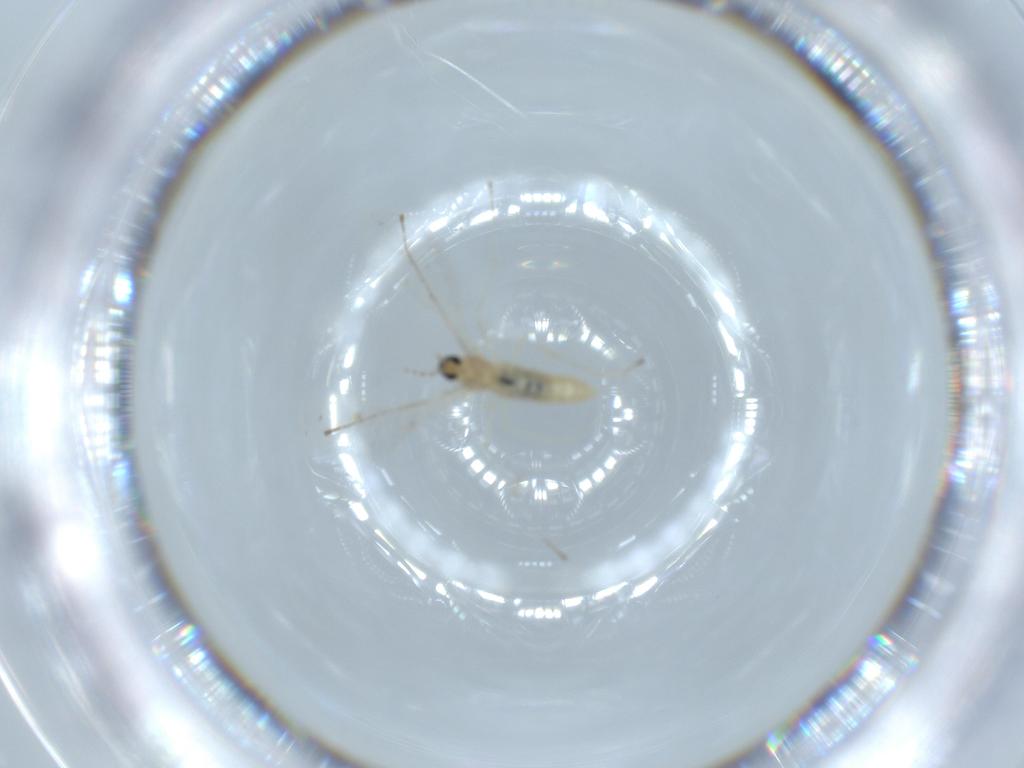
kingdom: Animalia
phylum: Arthropoda
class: Insecta
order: Diptera
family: Cecidomyiidae
